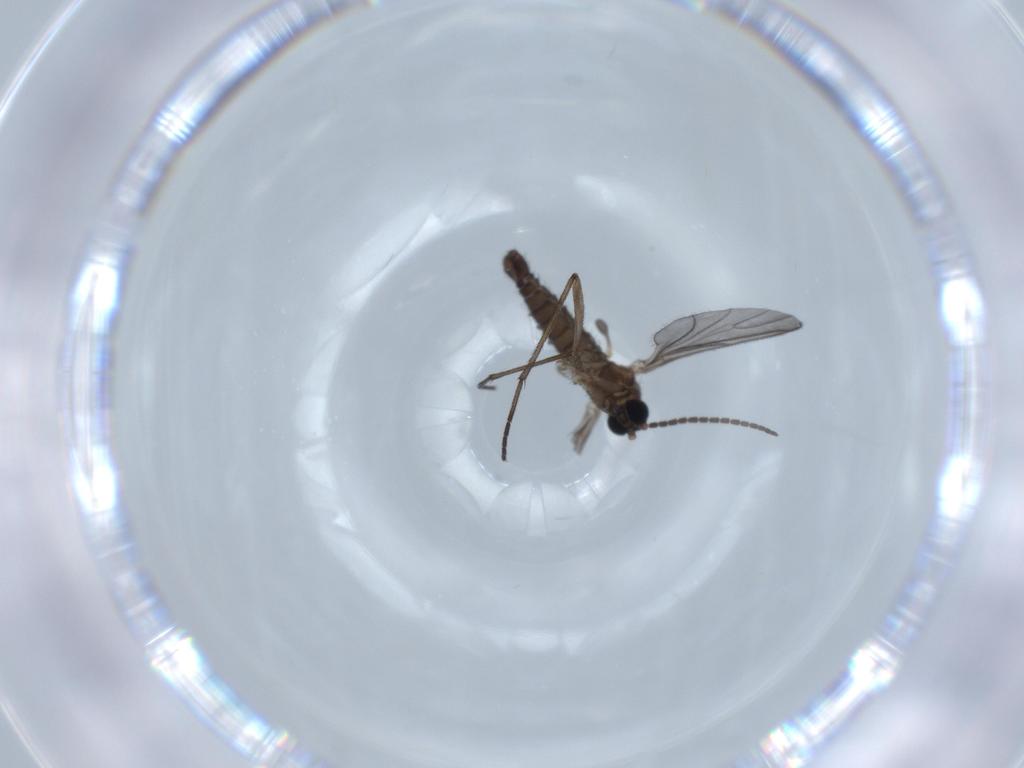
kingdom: Animalia
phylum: Arthropoda
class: Insecta
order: Diptera
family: Sciaridae
